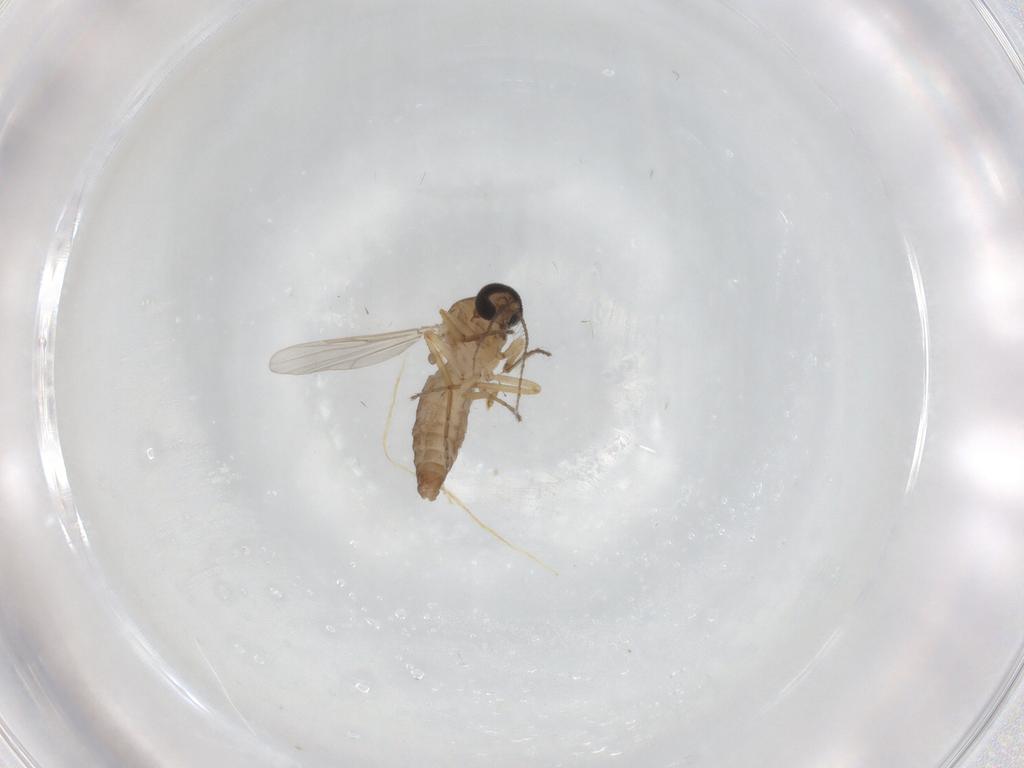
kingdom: Animalia
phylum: Arthropoda
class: Insecta
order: Diptera
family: Ceratopogonidae
